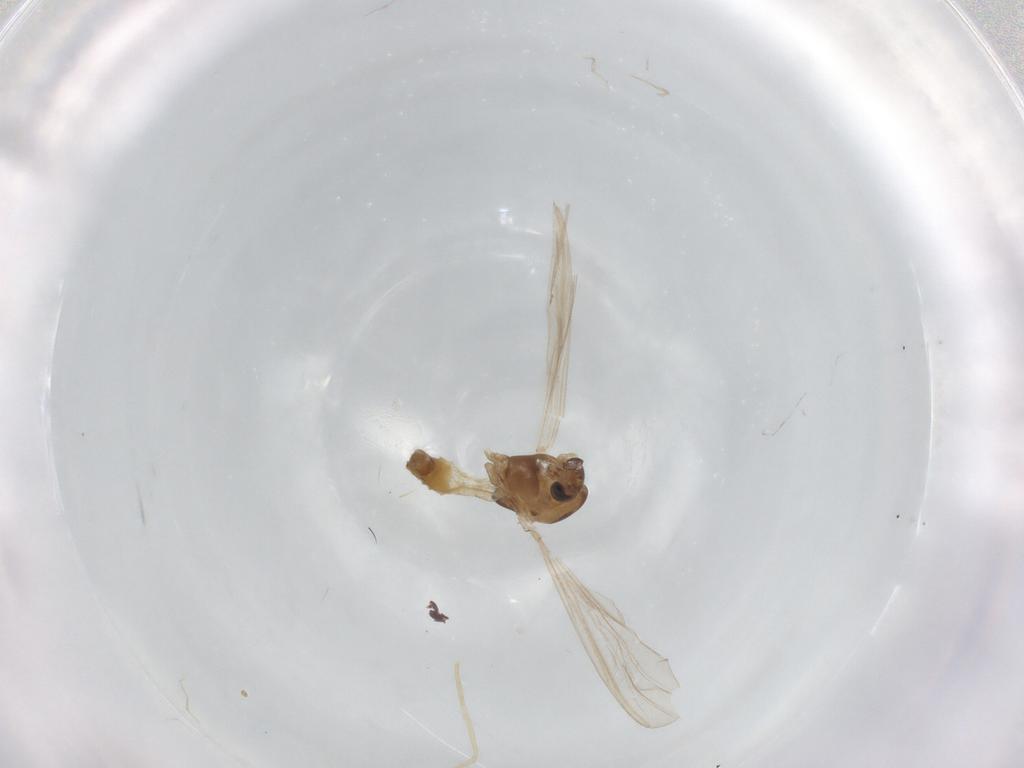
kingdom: Animalia
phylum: Arthropoda
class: Insecta
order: Diptera
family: Chironomidae
